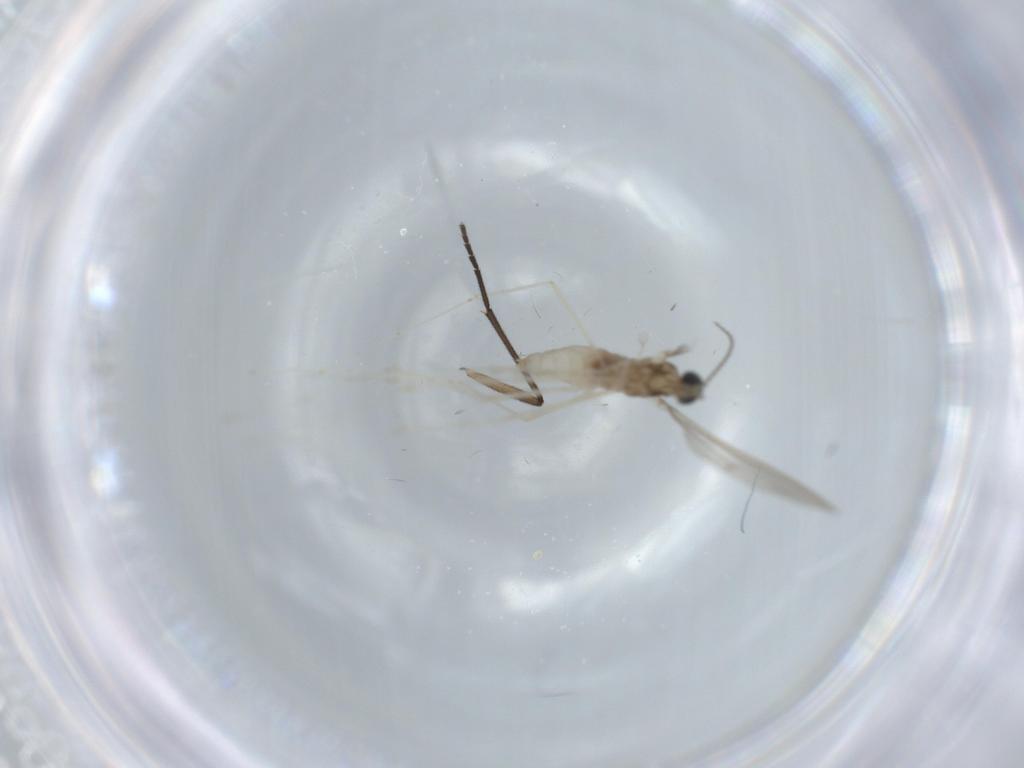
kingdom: Animalia
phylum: Arthropoda
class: Insecta
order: Diptera
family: Cecidomyiidae
